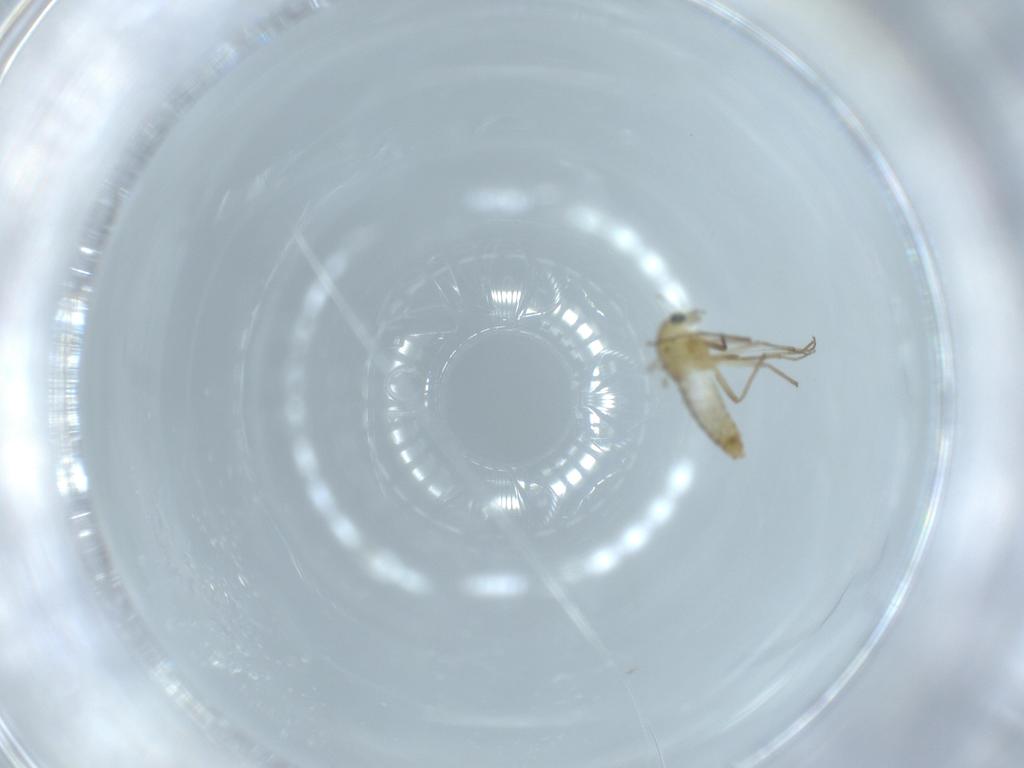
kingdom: Animalia
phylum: Arthropoda
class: Insecta
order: Diptera
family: Chironomidae
